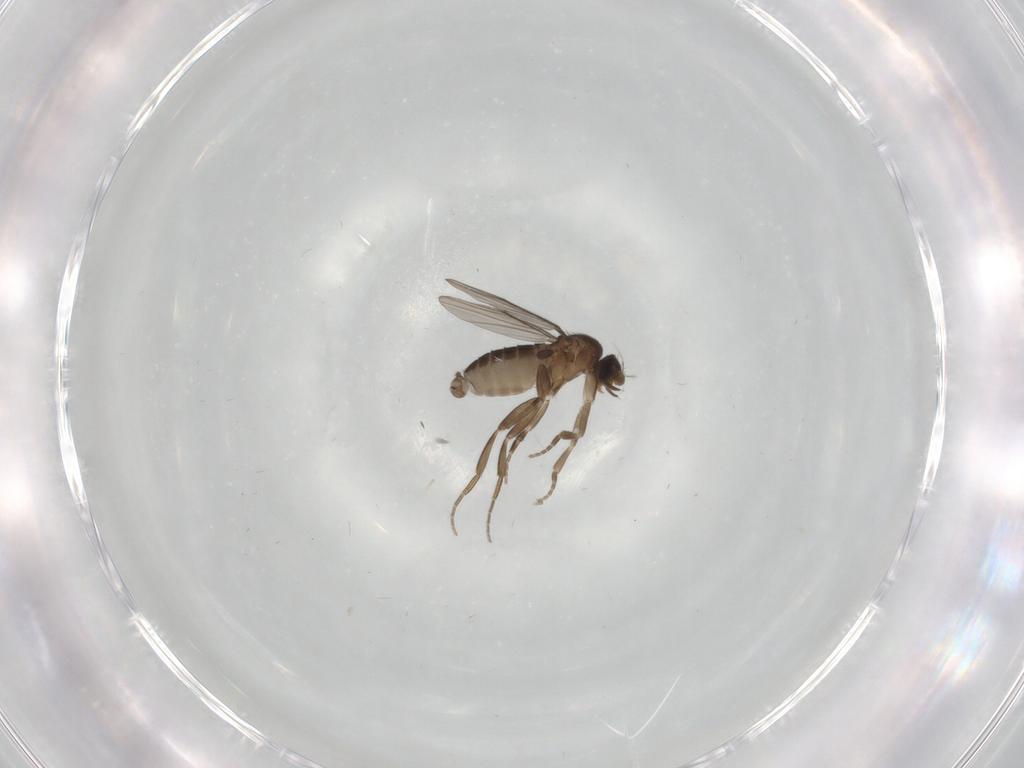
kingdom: Animalia
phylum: Arthropoda
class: Insecta
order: Diptera
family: Phoridae
